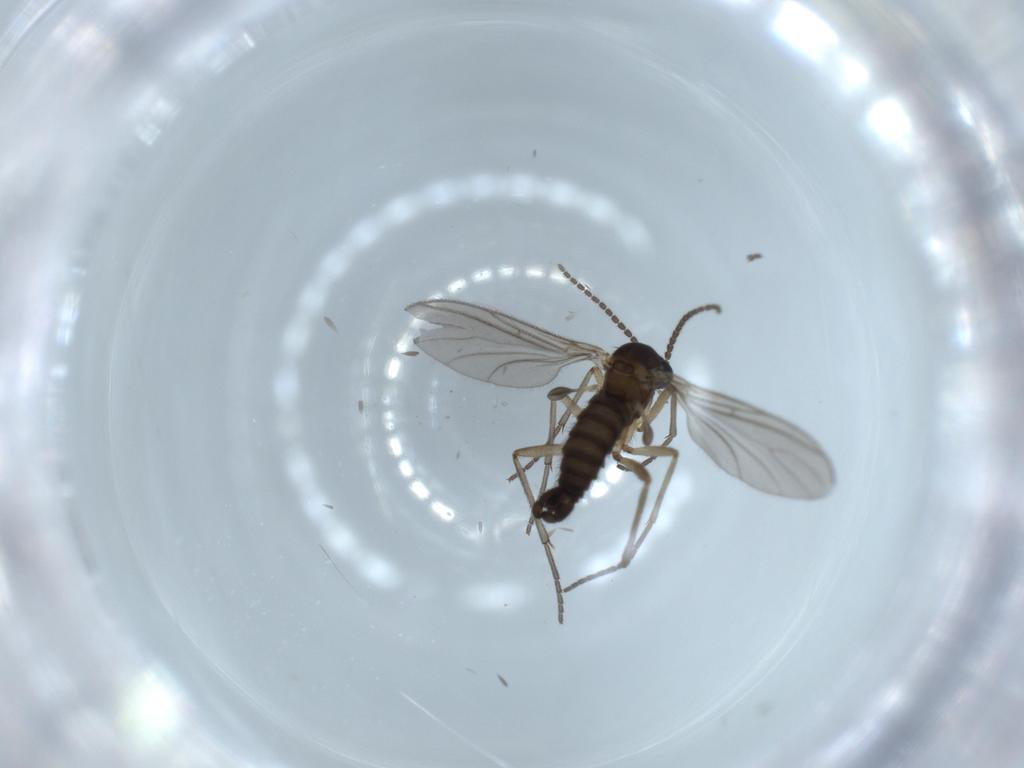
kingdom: Animalia
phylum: Arthropoda
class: Insecta
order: Diptera
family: Sciaridae
